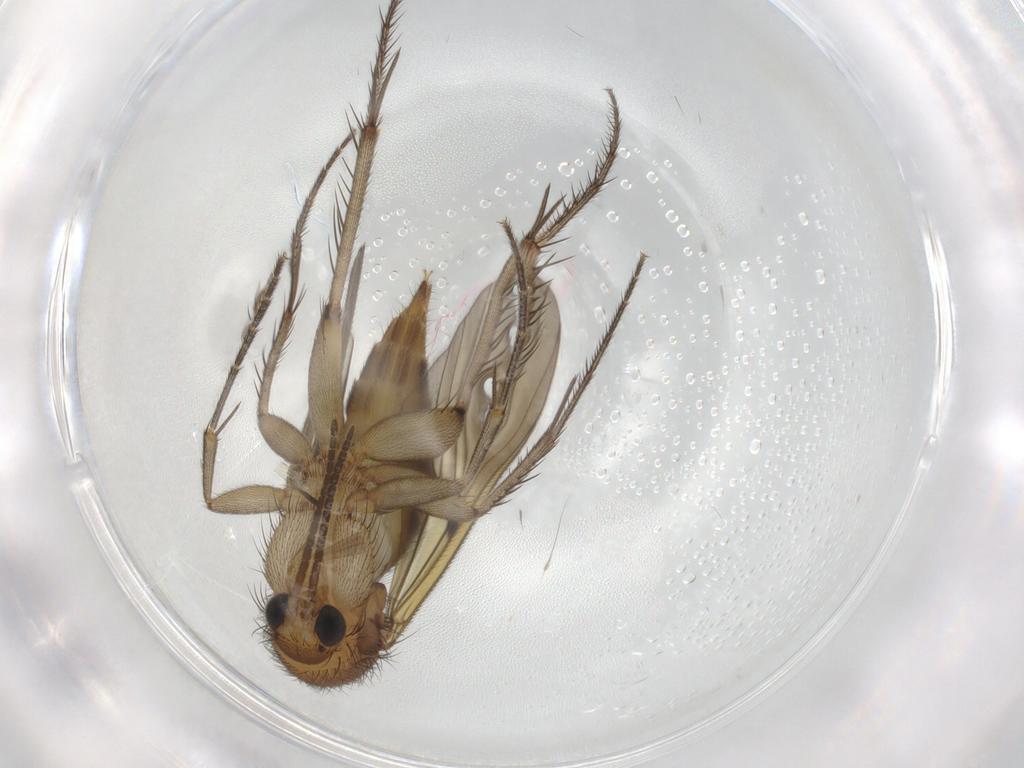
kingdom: Animalia
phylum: Arthropoda
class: Insecta
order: Diptera
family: Mycetophilidae
